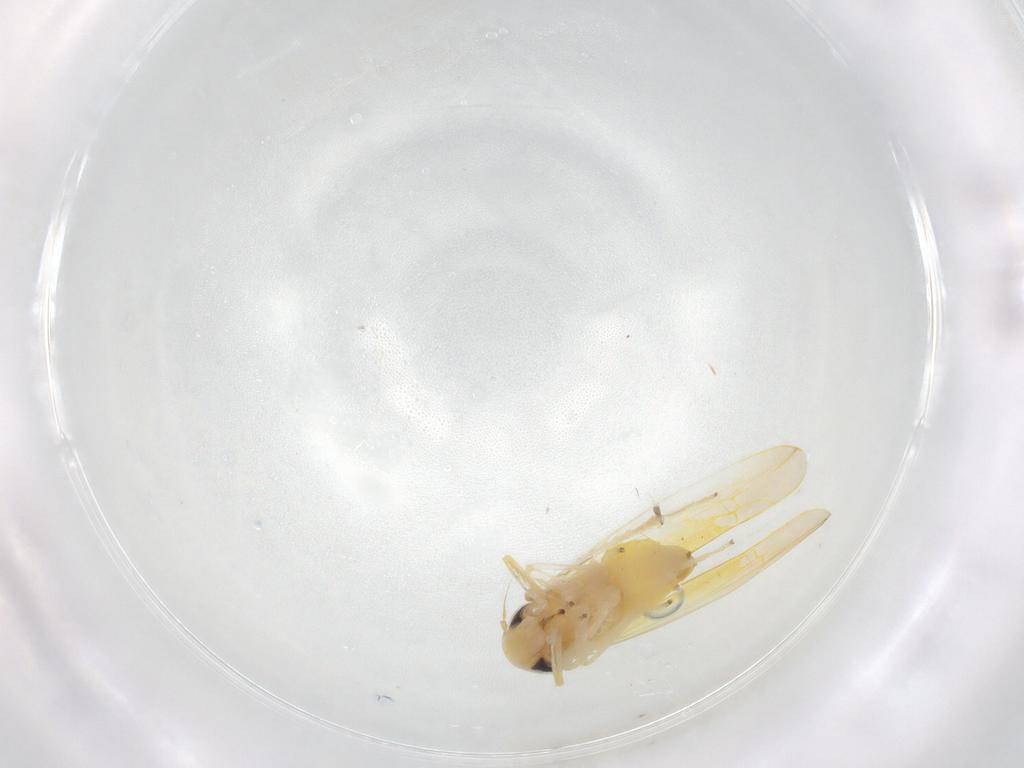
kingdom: Animalia
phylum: Arthropoda
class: Insecta
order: Hemiptera
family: Cicadellidae
